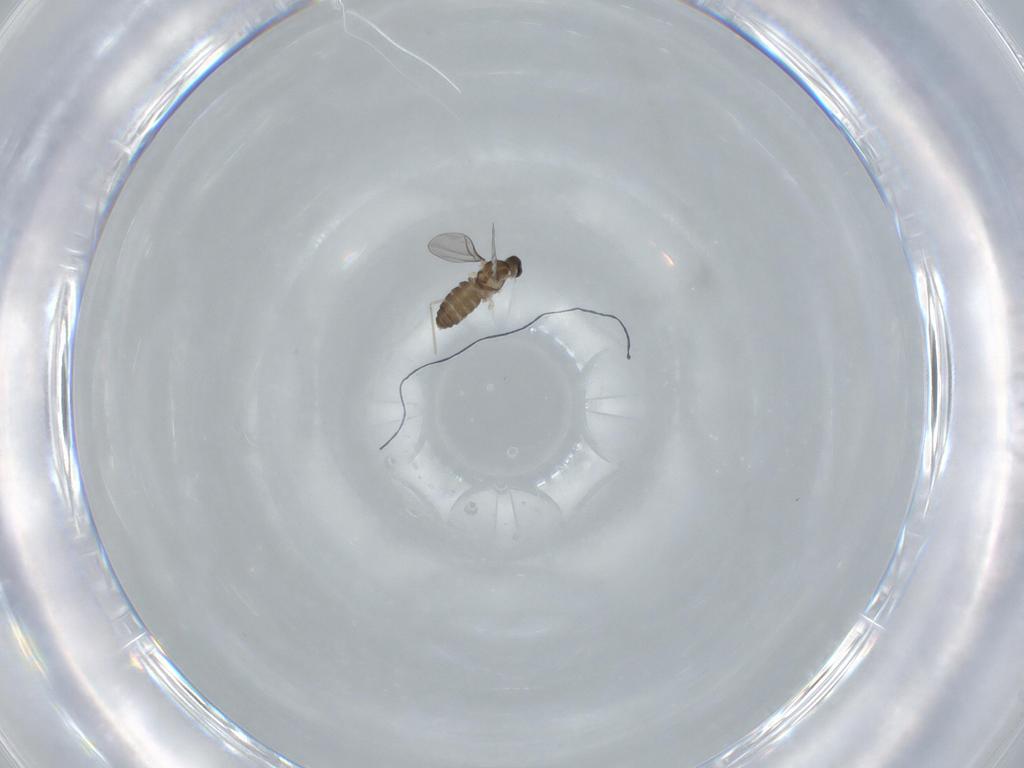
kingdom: Animalia
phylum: Arthropoda
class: Insecta
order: Diptera
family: Cecidomyiidae
